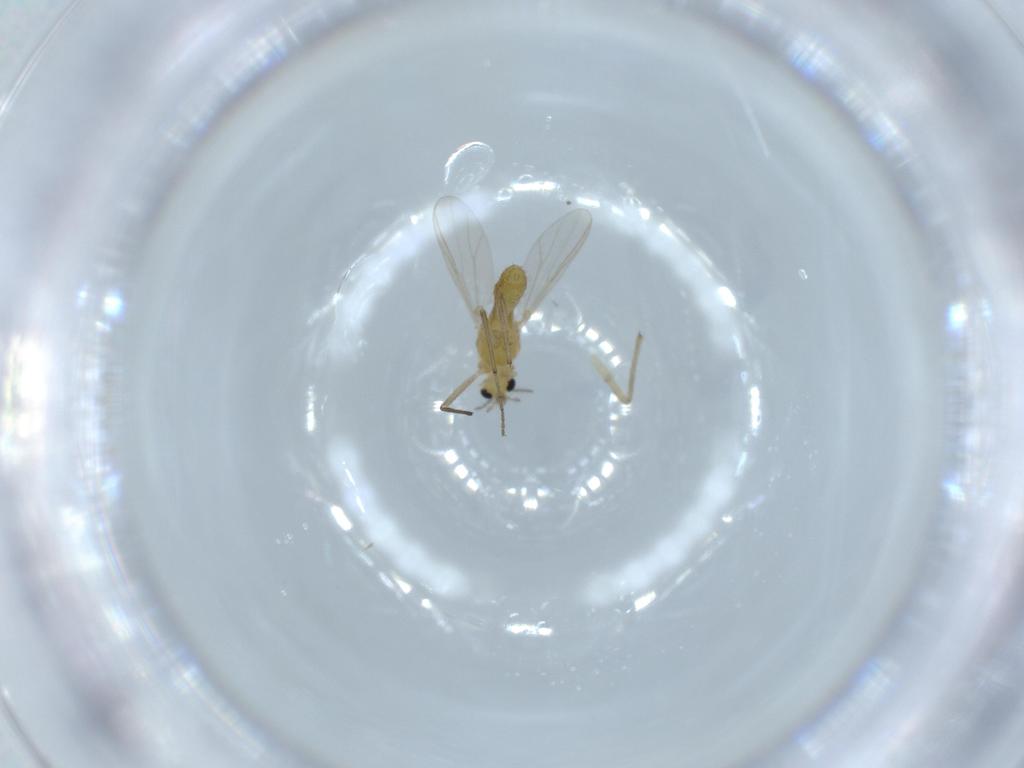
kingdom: Animalia
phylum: Arthropoda
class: Insecta
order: Diptera
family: Chironomidae
